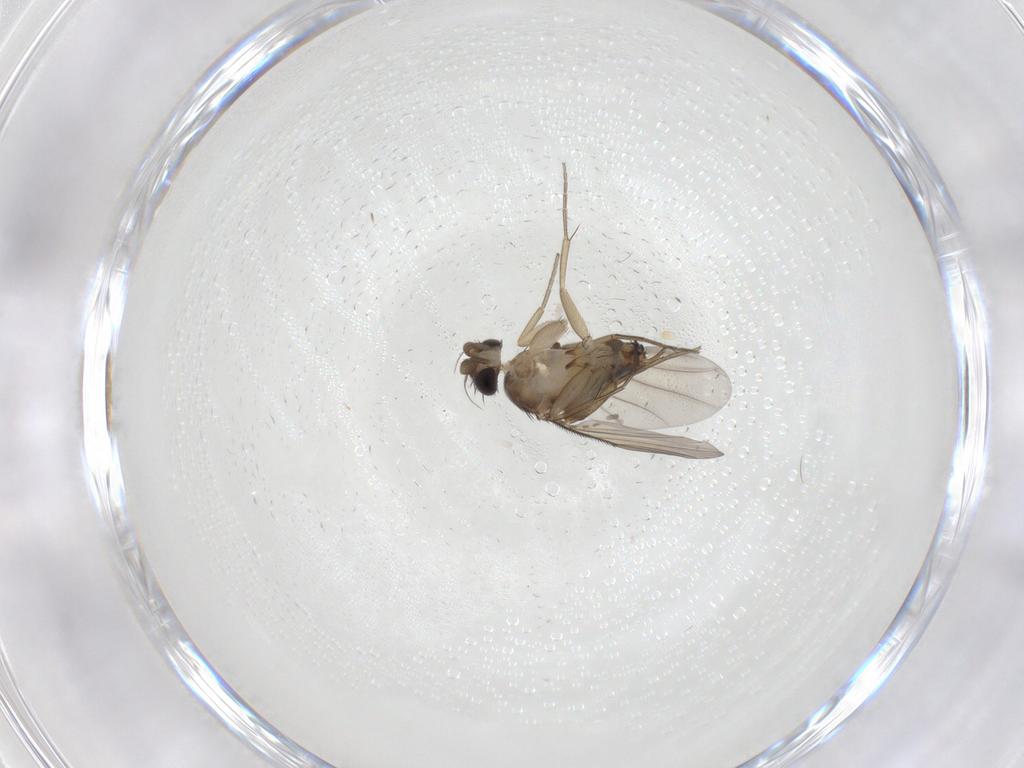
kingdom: Animalia
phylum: Arthropoda
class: Insecta
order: Diptera
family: Phoridae
